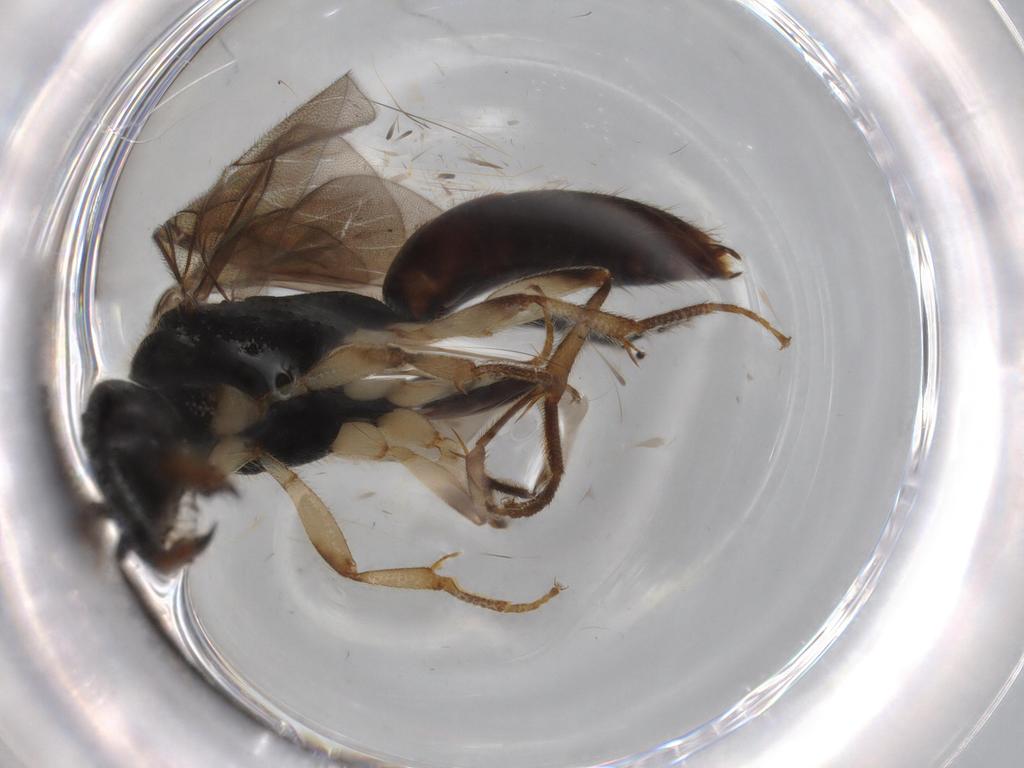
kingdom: Animalia
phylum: Arthropoda
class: Insecta
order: Hymenoptera
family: Bethylidae
